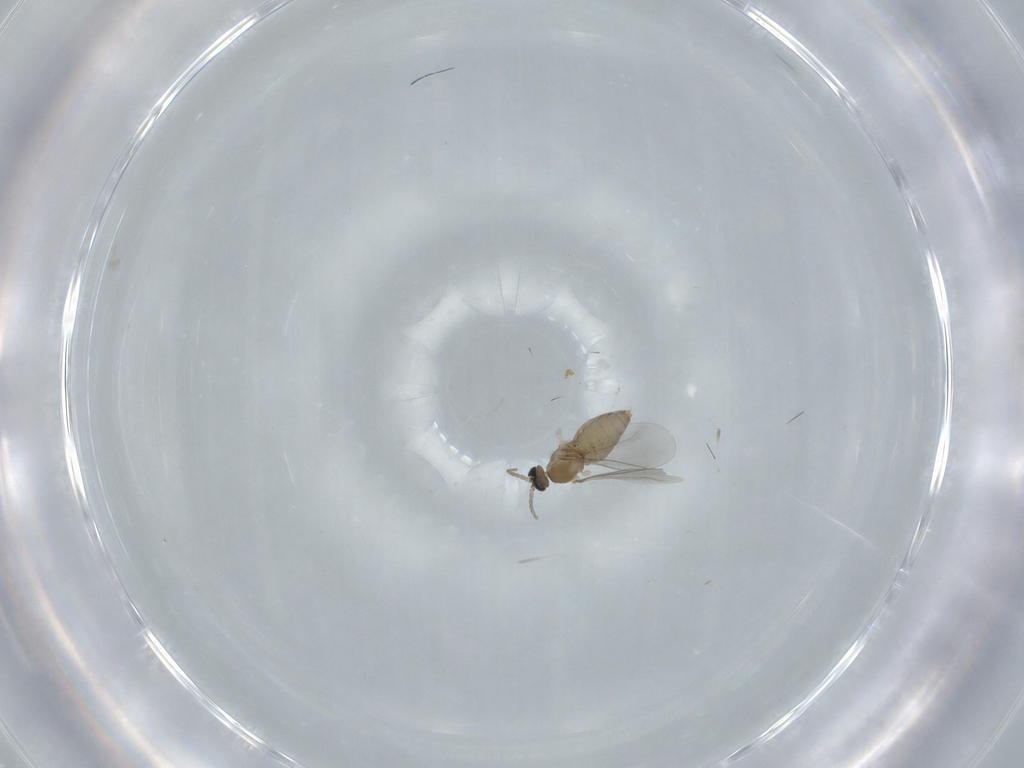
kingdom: Animalia
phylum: Arthropoda
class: Insecta
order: Diptera
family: Cecidomyiidae
